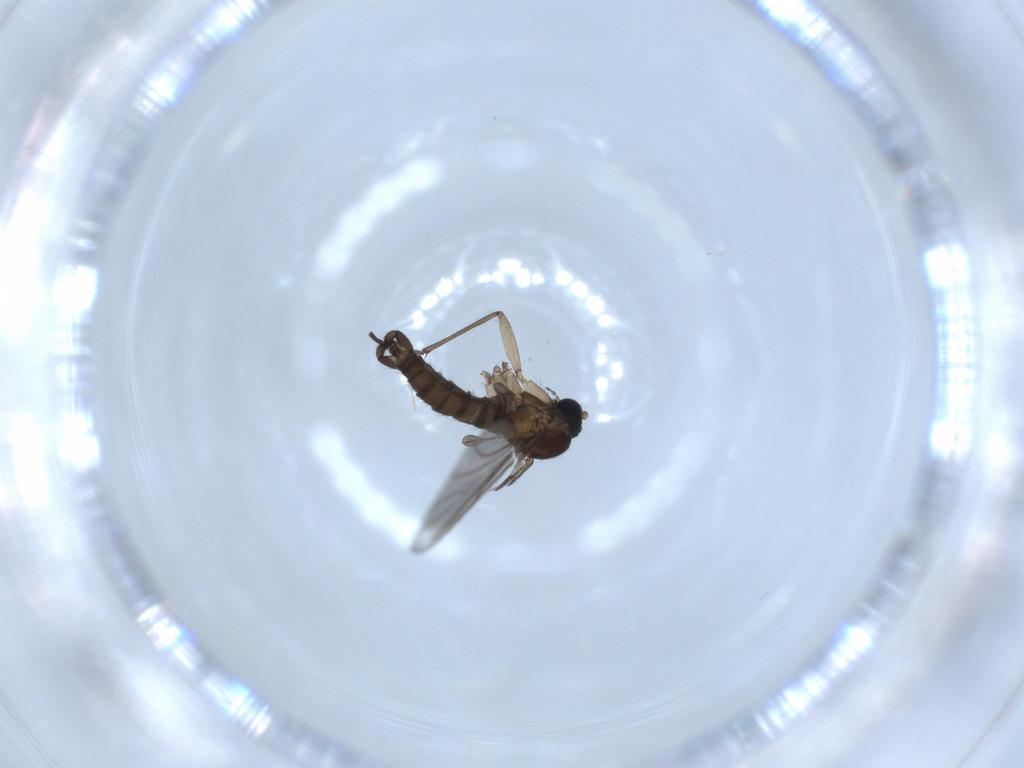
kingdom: Animalia
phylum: Arthropoda
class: Insecta
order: Diptera
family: Sciaridae
